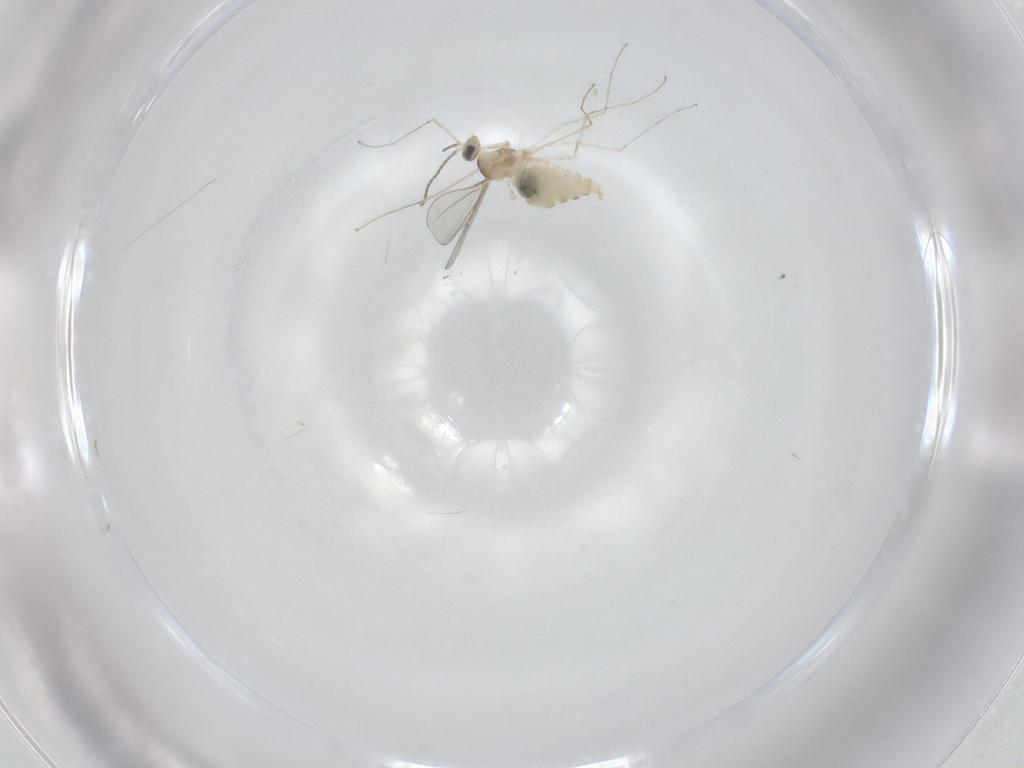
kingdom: Animalia
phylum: Arthropoda
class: Insecta
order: Diptera
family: Cecidomyiidae
